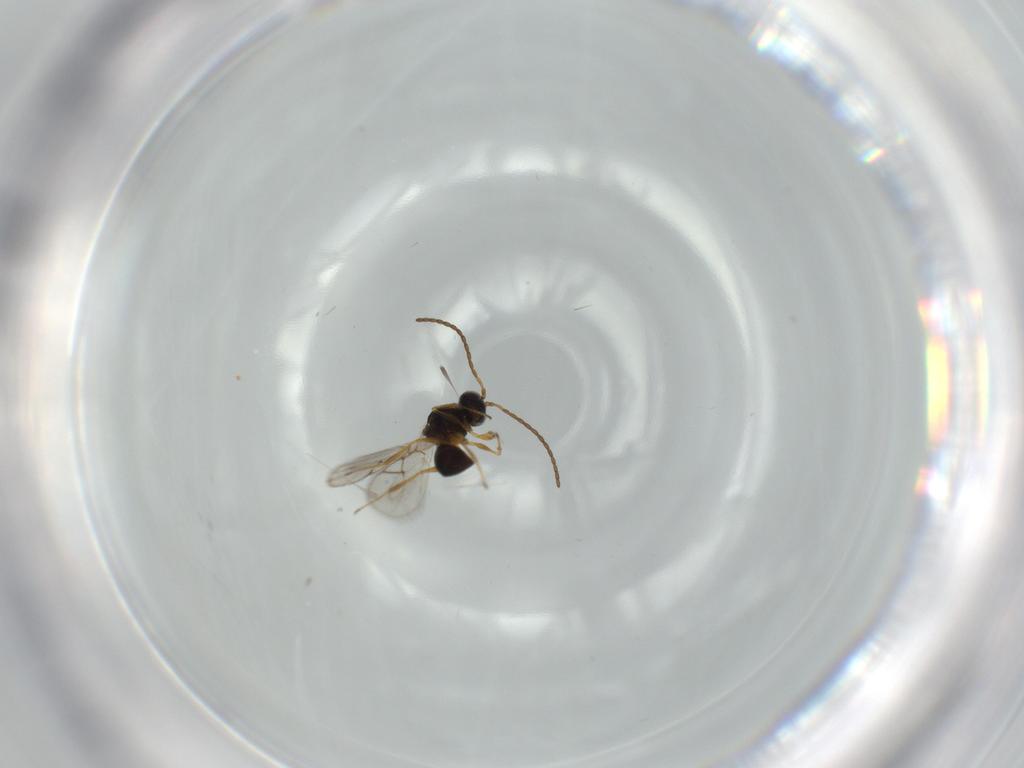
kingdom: Animalia
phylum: Arthropoda
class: Insecta
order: Hymenoptera
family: Figitidae
